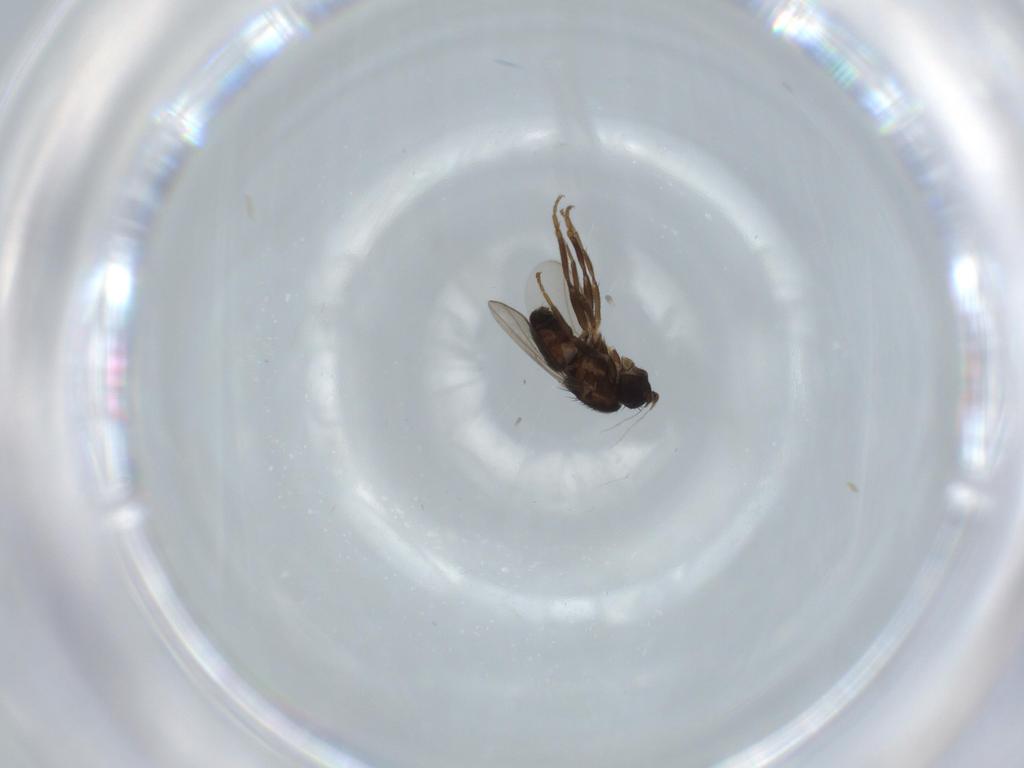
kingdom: Animalia
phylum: Arthropoda
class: Insecta
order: Diptera
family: Sphaeroceridae
